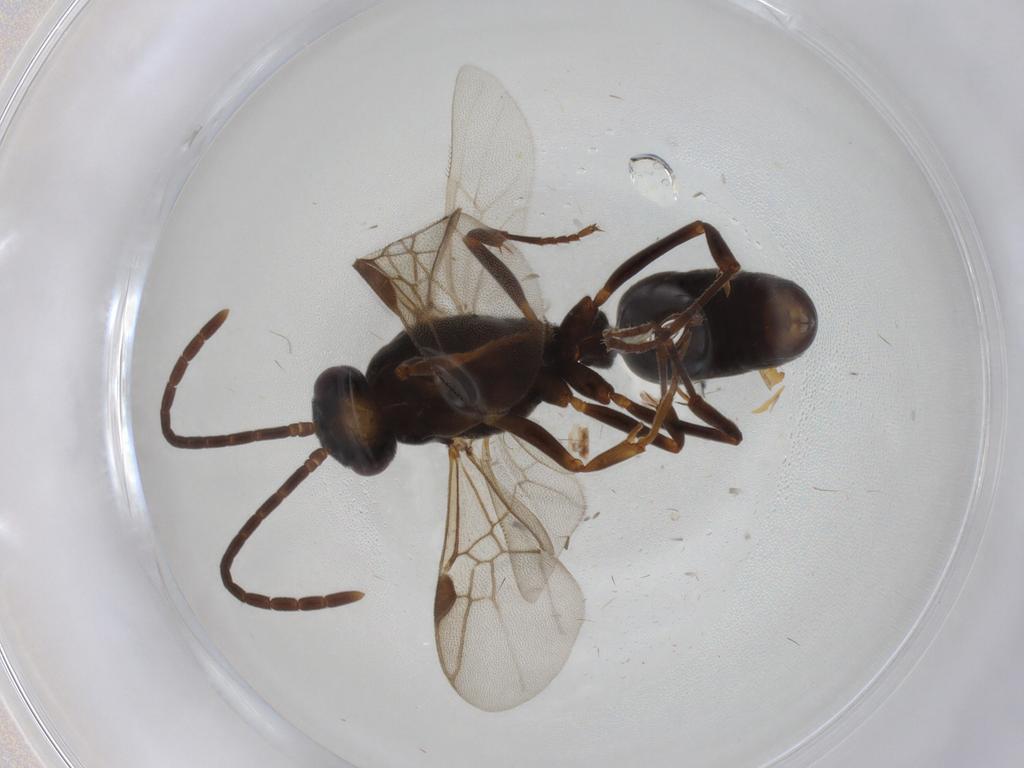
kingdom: Animalia
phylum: Arthropoda
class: Insecta
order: Hymenoptera
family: Formicidae
